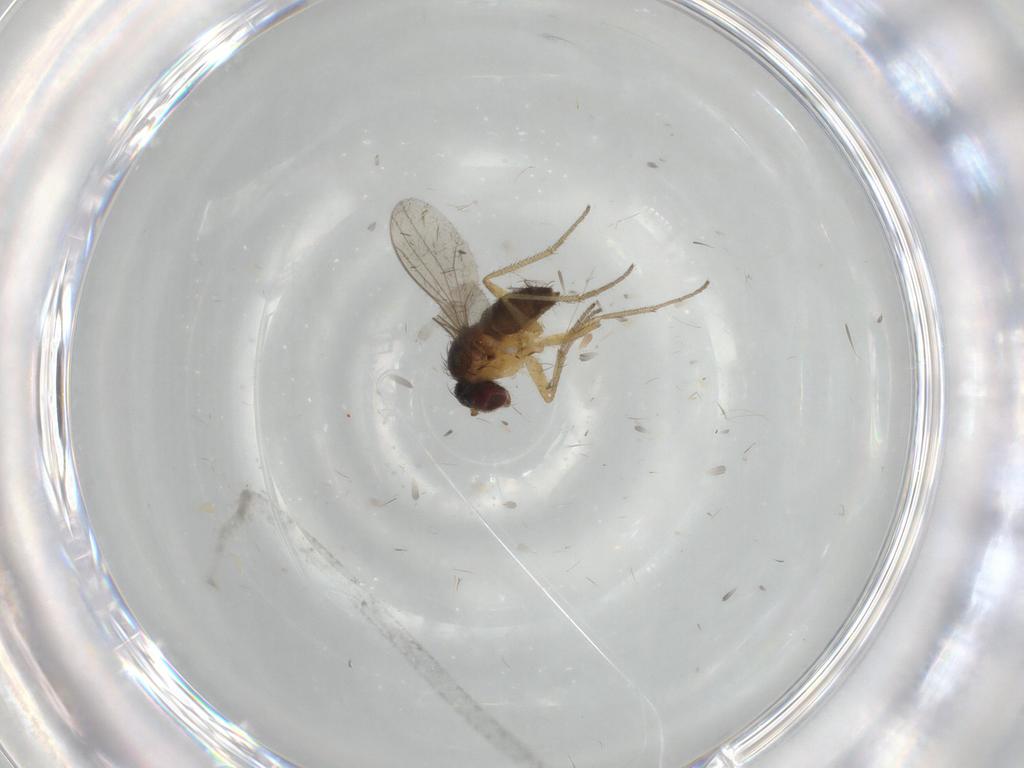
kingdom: Animalia
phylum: Arthropoda
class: Insecta
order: Diptera
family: Dolichopodidae
